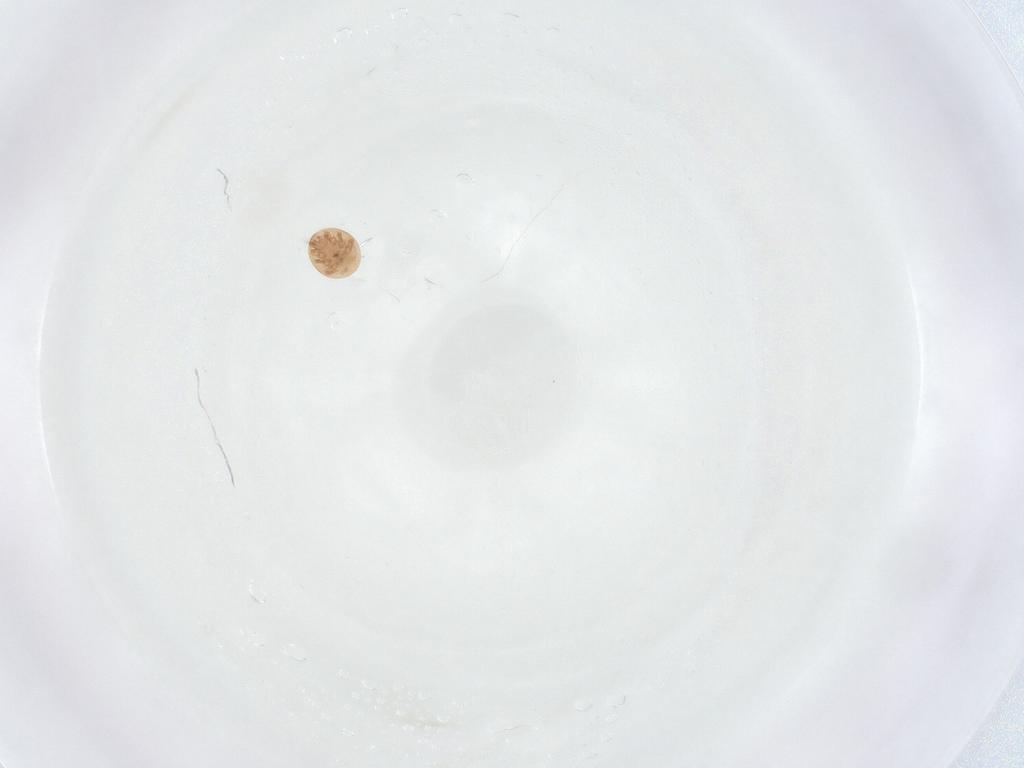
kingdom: Animalia
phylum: Arthropoda
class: Arachnida
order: Mesostigmata
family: Trematuridae
